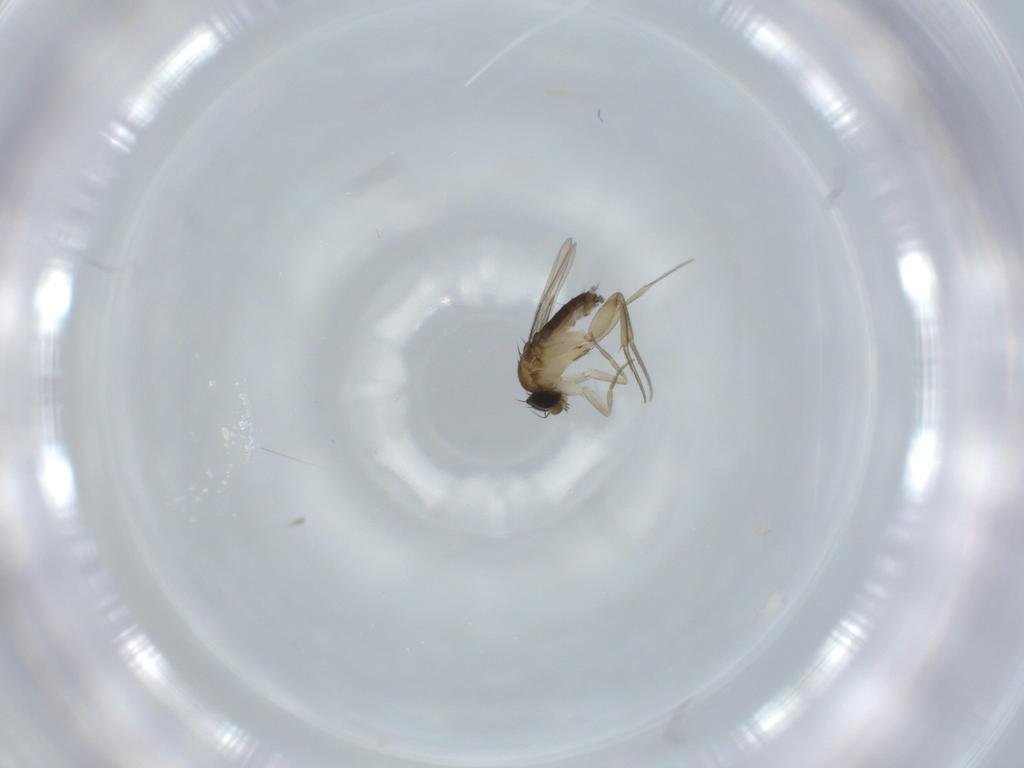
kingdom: Animalia
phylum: Arthropoda
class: Insecta
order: Diptera
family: Phoridae
